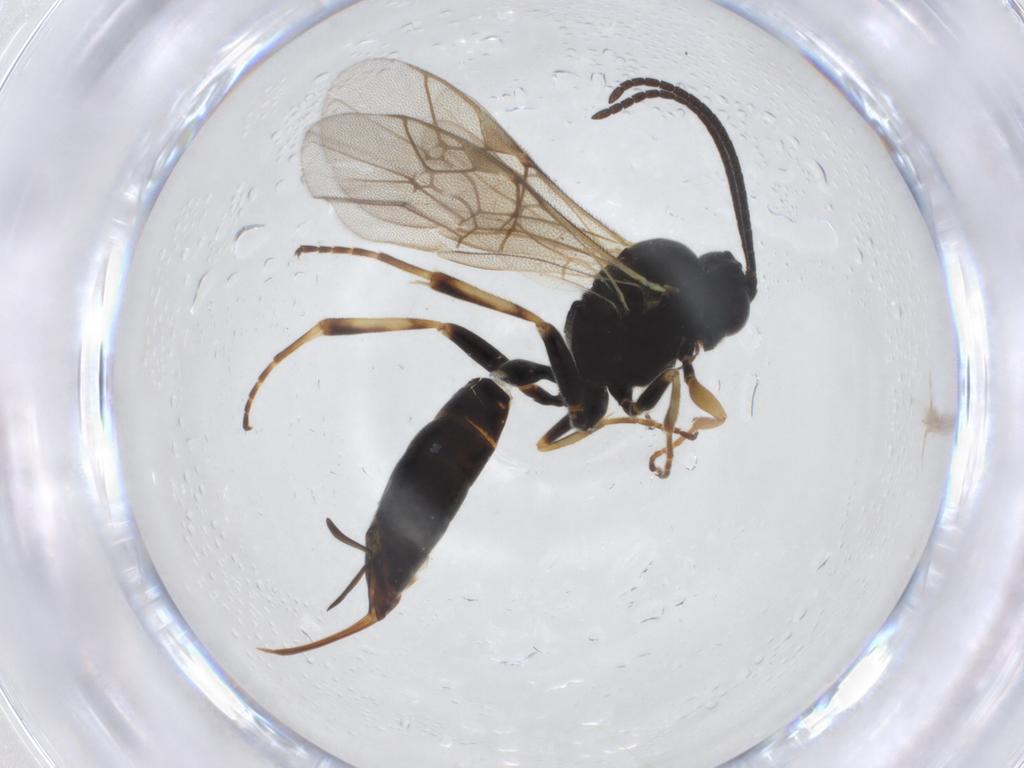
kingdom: Animalia
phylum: Arthropoda
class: Insecta
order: Hymenoptera
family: Ichneumonidae
